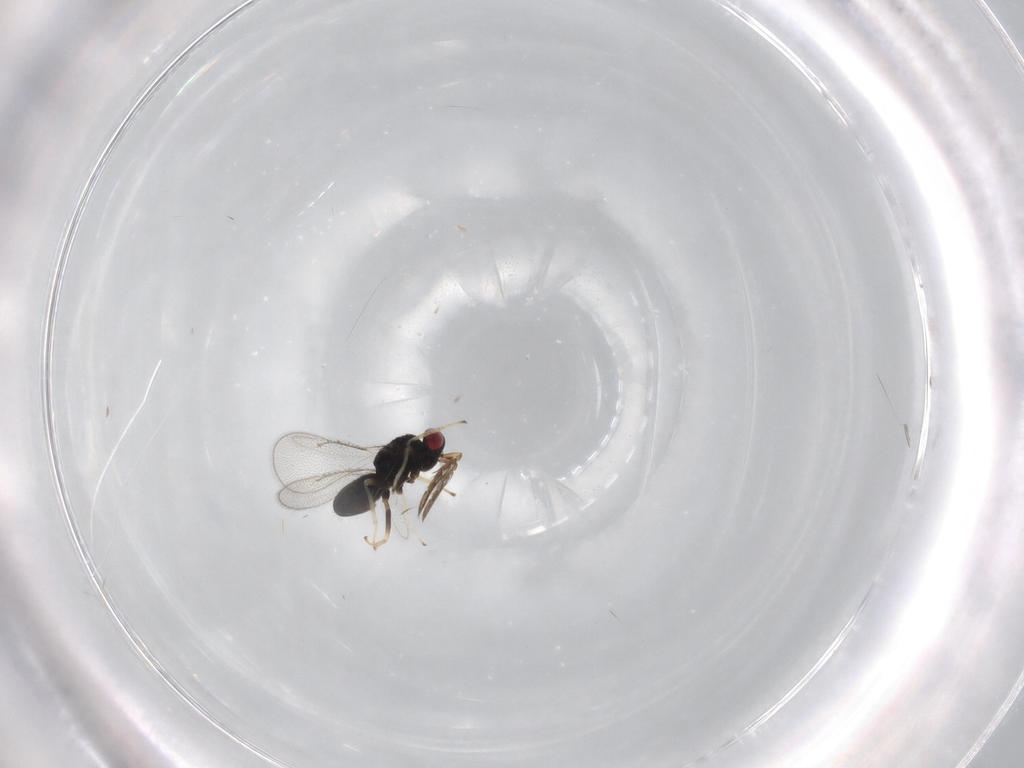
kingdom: Animalia
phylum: Arthropoda
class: Insecta
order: Hymenoptera
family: Eulophidae
